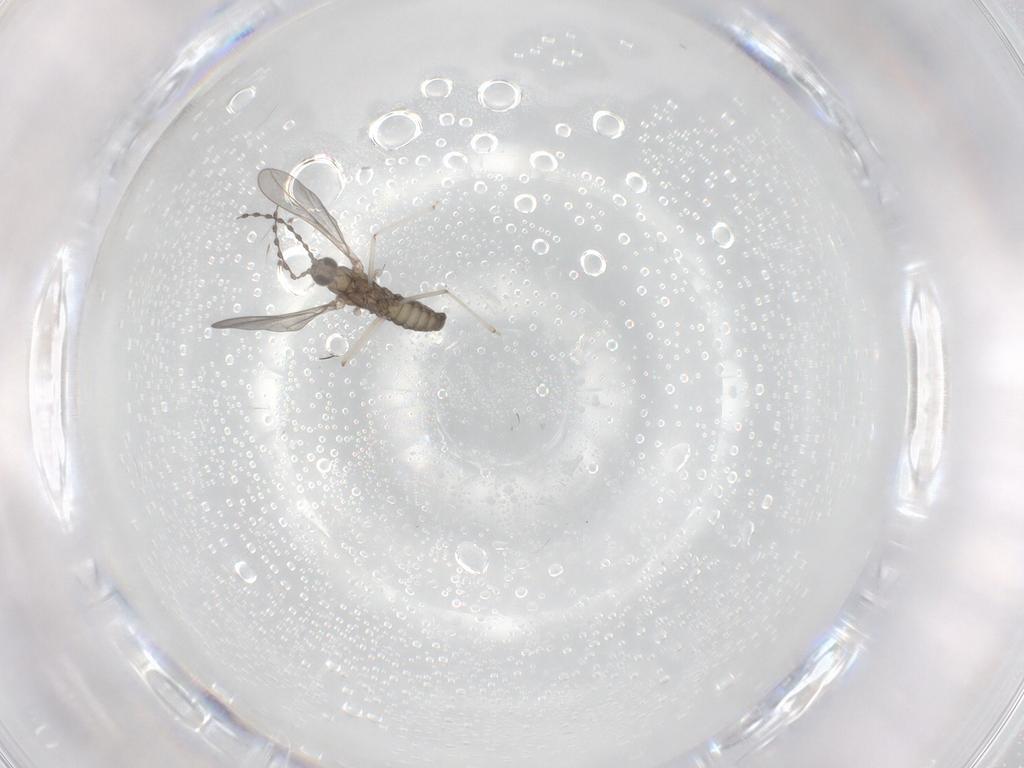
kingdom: Animalia
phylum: Arthropoda
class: Insecta
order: Diptera
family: Cecidomyiidae
